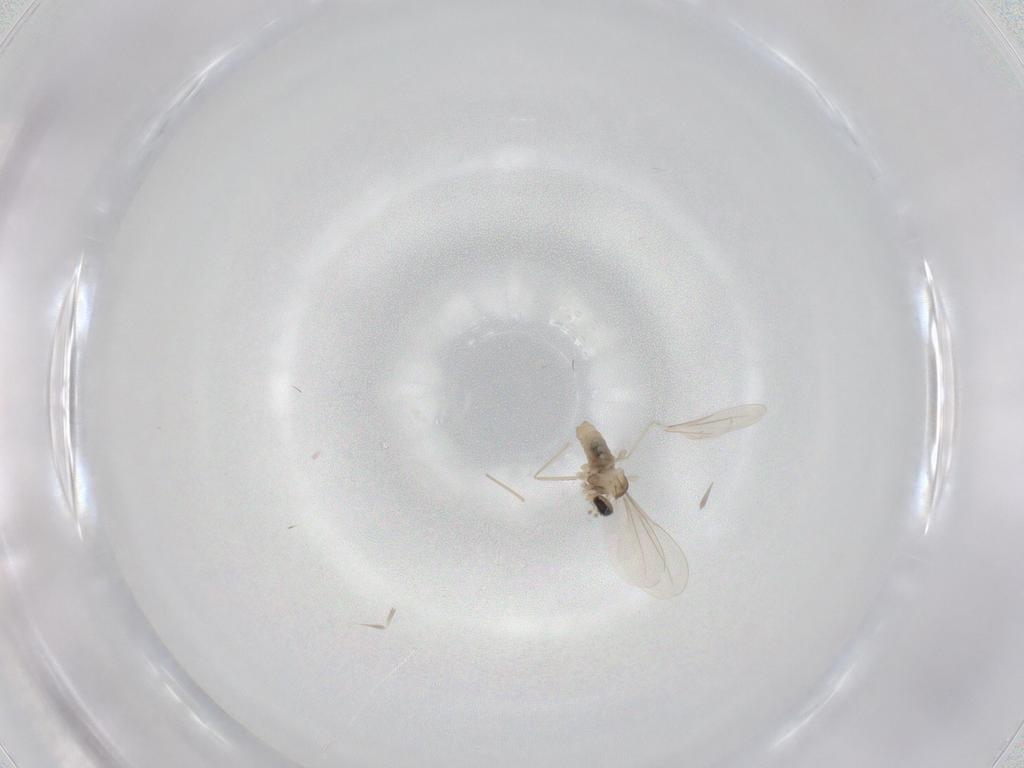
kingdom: Animalia
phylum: Arthropoda
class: Insecta
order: Diptera
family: Cecidomyiidae
